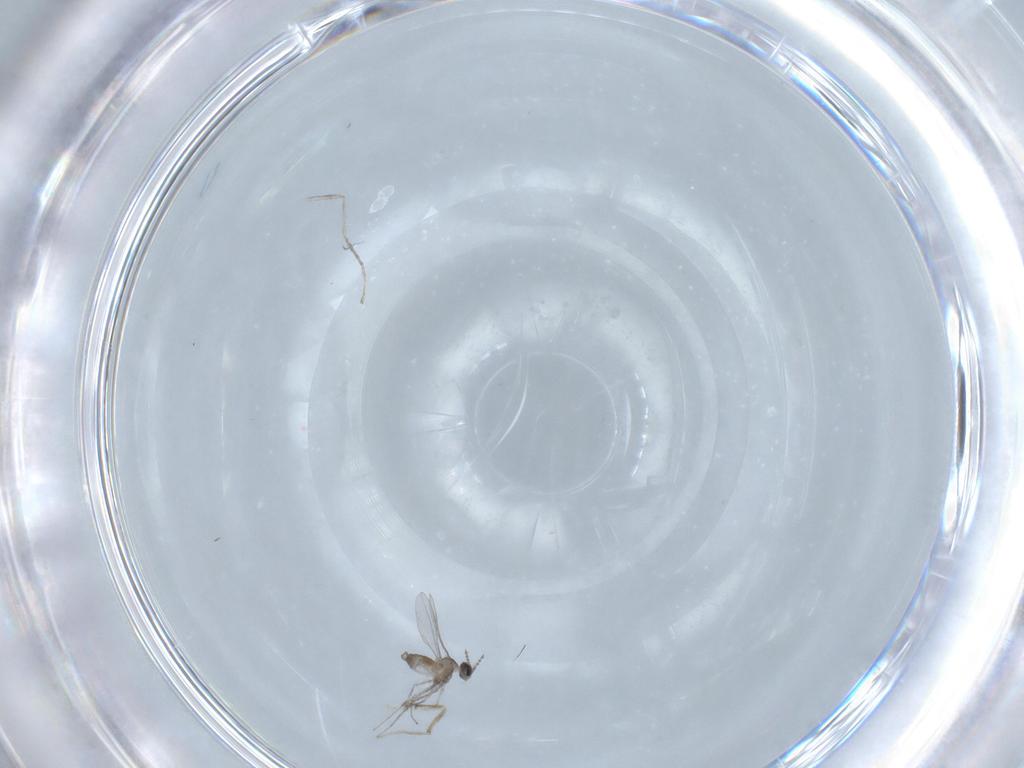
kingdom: Animalia
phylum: Arthropoda
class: Insecta
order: Diptera
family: Cecidomyiidae
